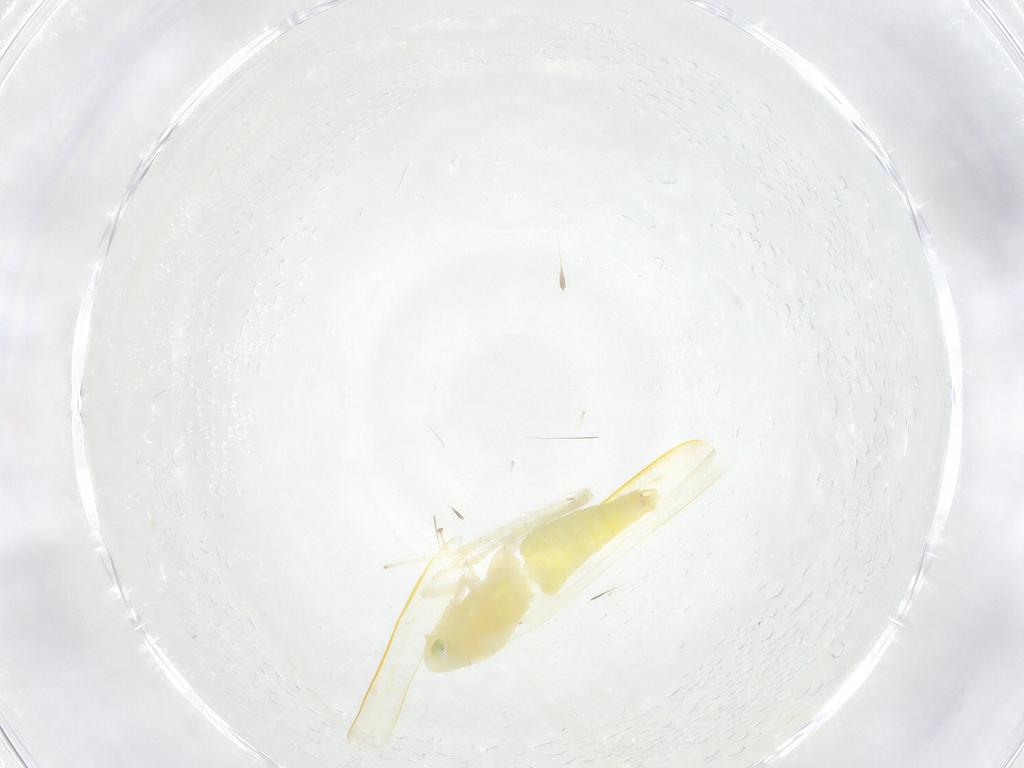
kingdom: Animalia
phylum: Arthropoda
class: Insecta
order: Hemiptera
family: Cicadellidae
